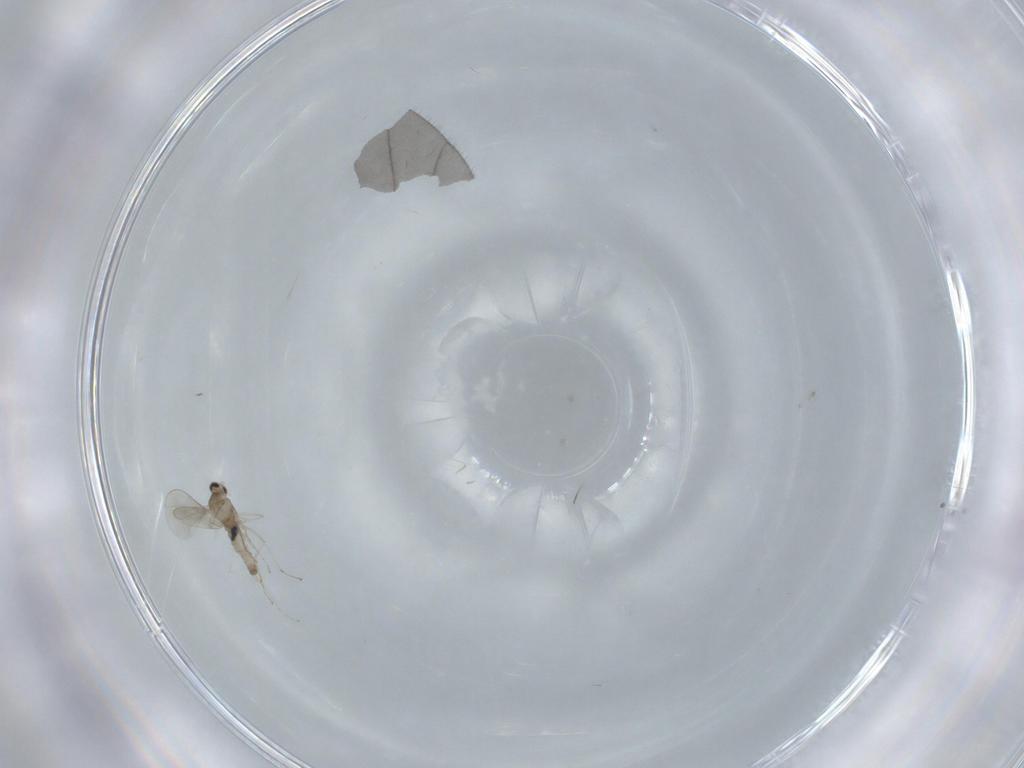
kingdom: Animalia
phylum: Arthropoda
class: Insecta
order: Diptera
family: Cecidomyiidae
